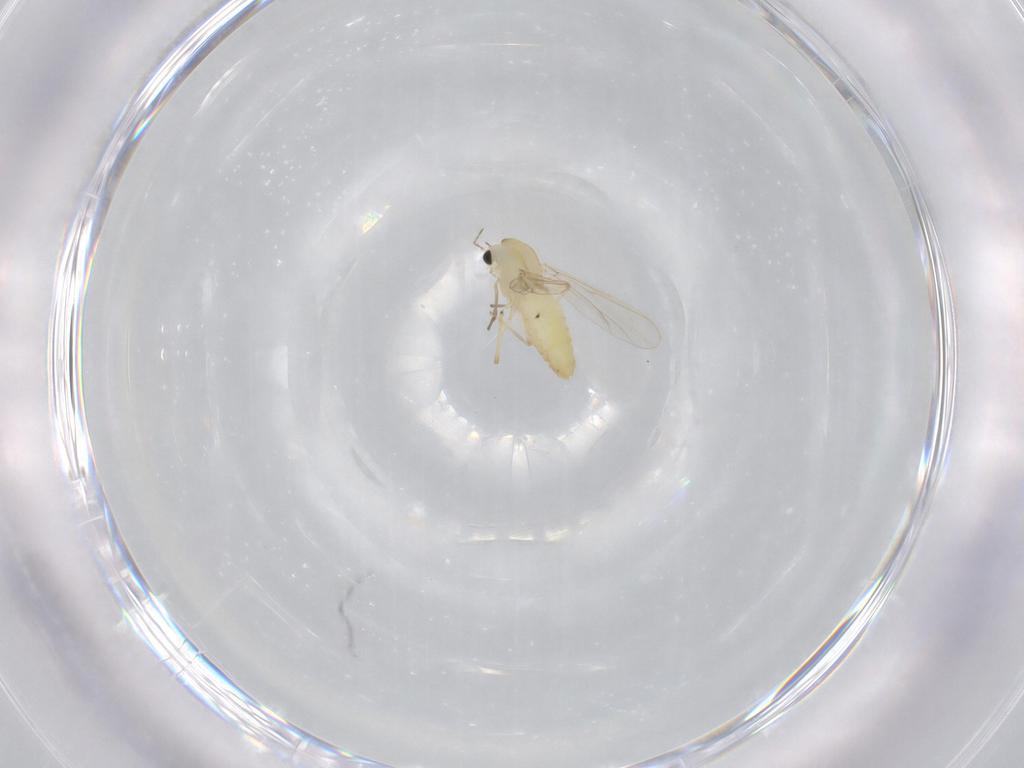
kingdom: Animalia
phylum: Arthropoda
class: Insecta
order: Diptera
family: Chironomidae
